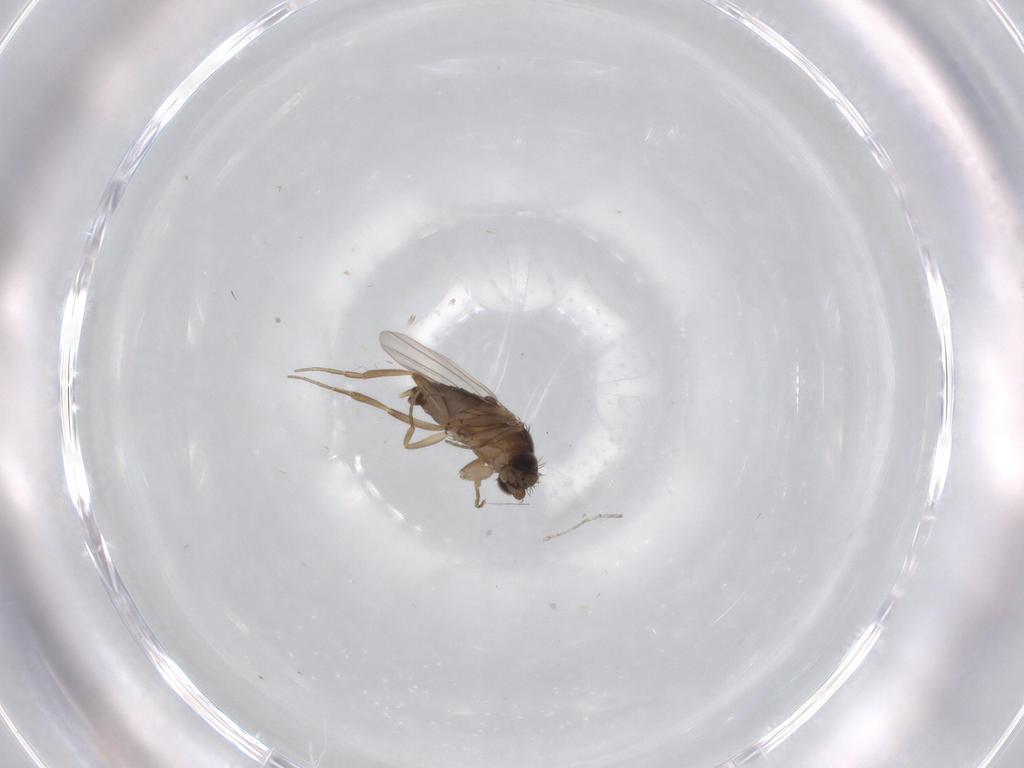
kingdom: Animalia
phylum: Arthropoda
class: Insecta
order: Diptera
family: Phoridae
